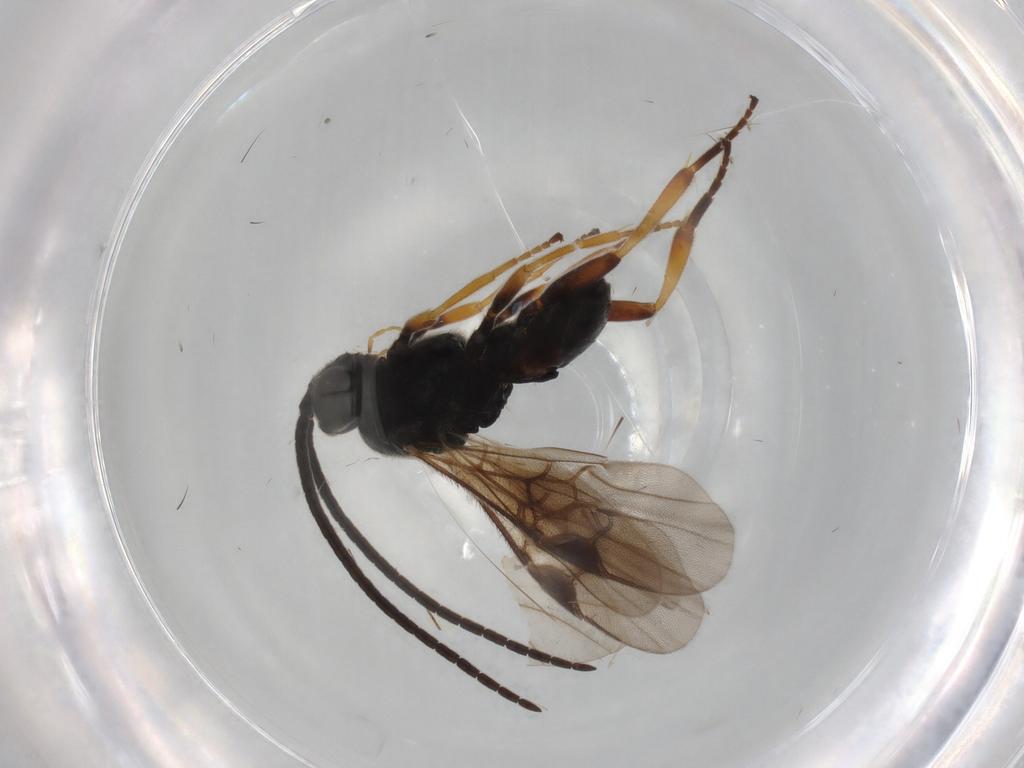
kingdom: Animalia
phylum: Arthropoda
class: Insecta
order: Hymenoptera
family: Braconidae
